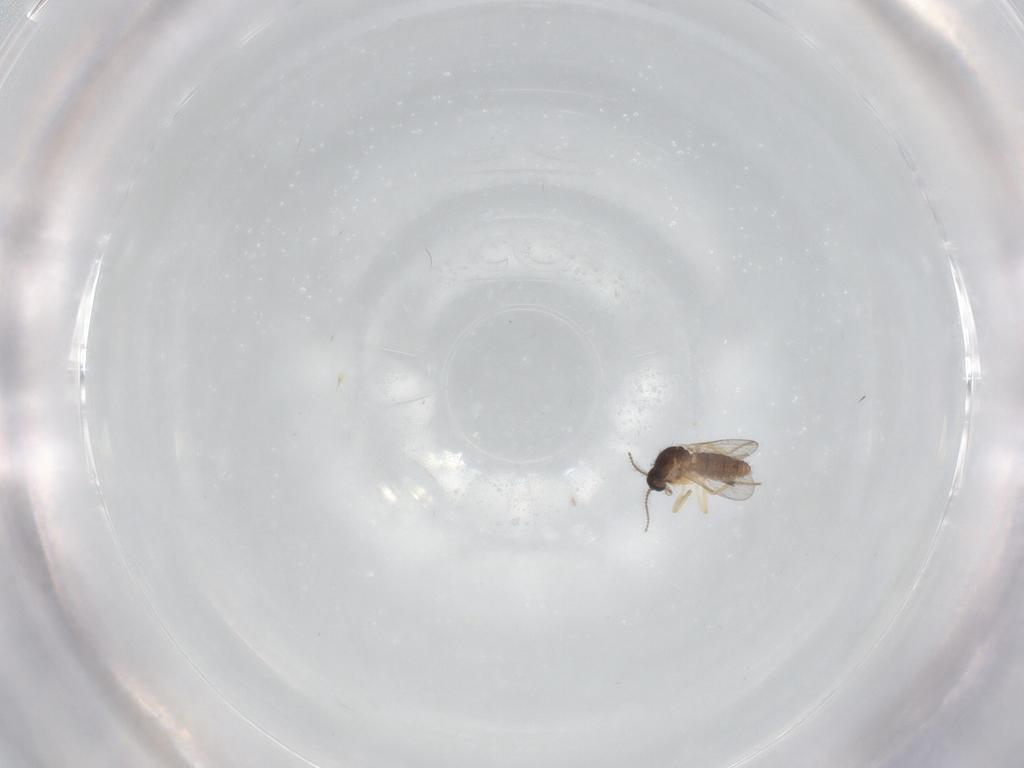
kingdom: Animalia
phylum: Arthropoda
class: Insecta
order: Diptera
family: Ceratopogonidae
